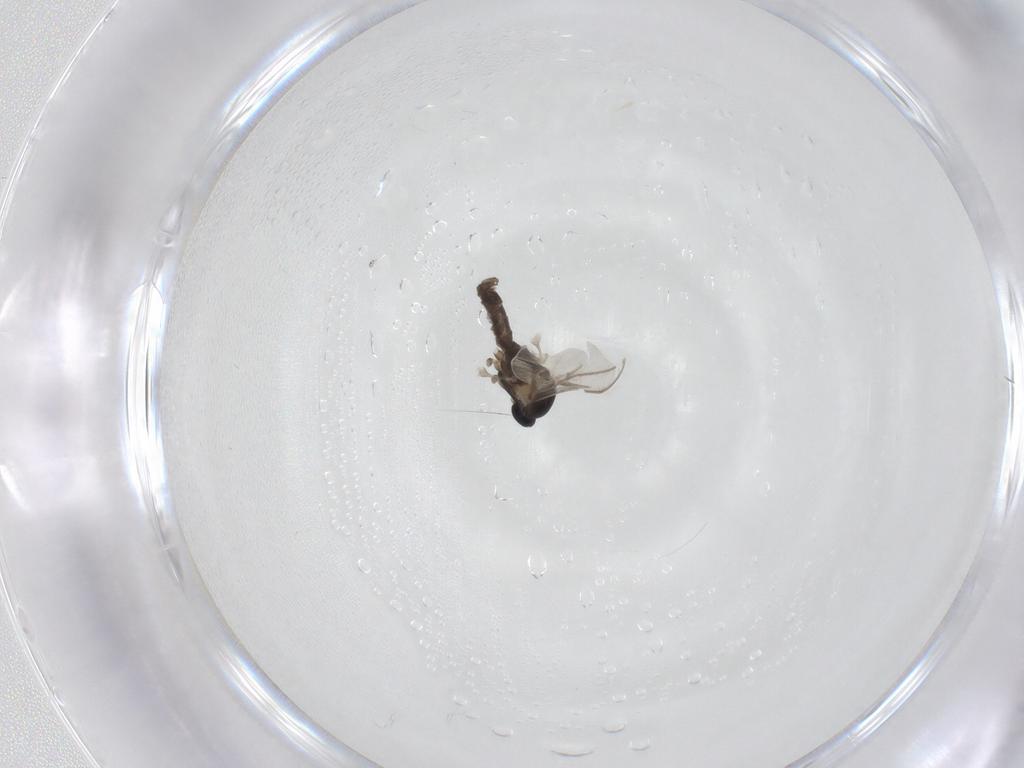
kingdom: Animalia
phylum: Arthropoda
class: Insecta
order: Diptera
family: Cecidomyiidae
